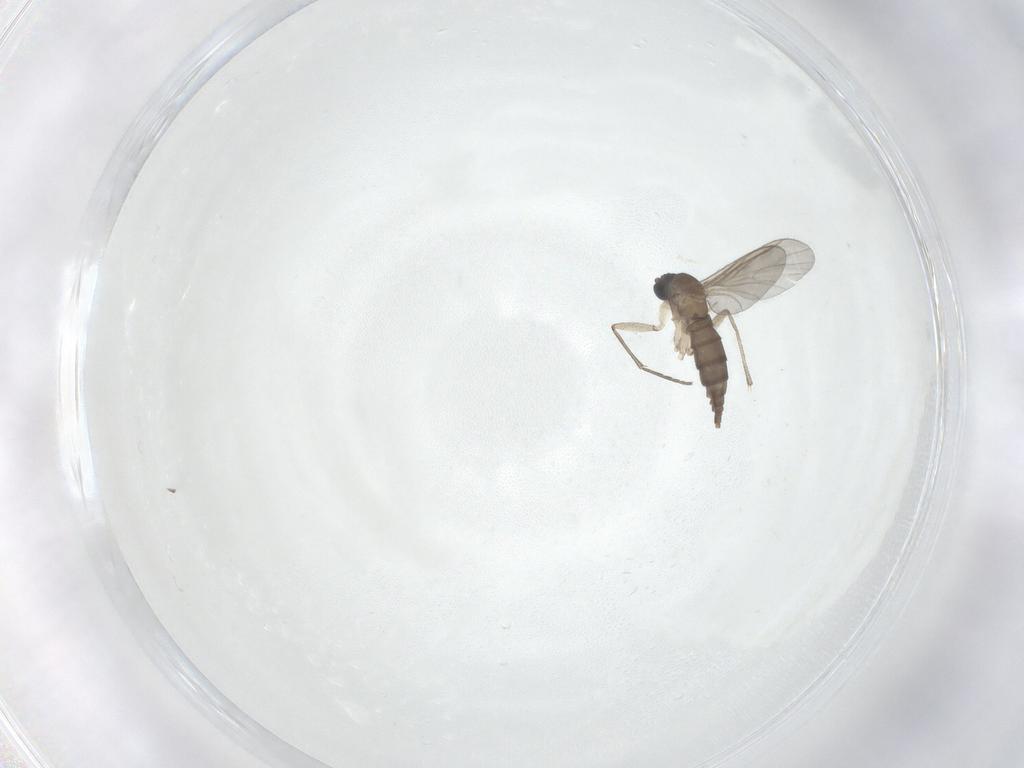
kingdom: Animalia
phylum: Arthropoda
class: Insecta
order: Diptera
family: Sciaridae
